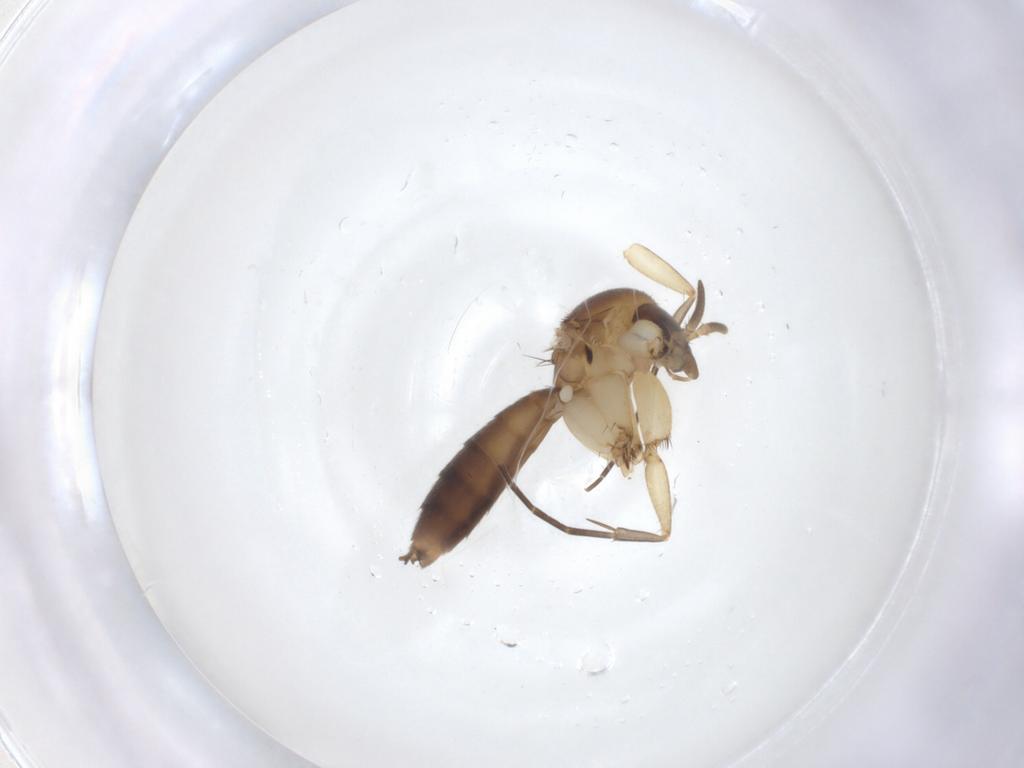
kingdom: Animalia
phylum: Arthropoda
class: Insecta
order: Diptera
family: Mycetophilidae
